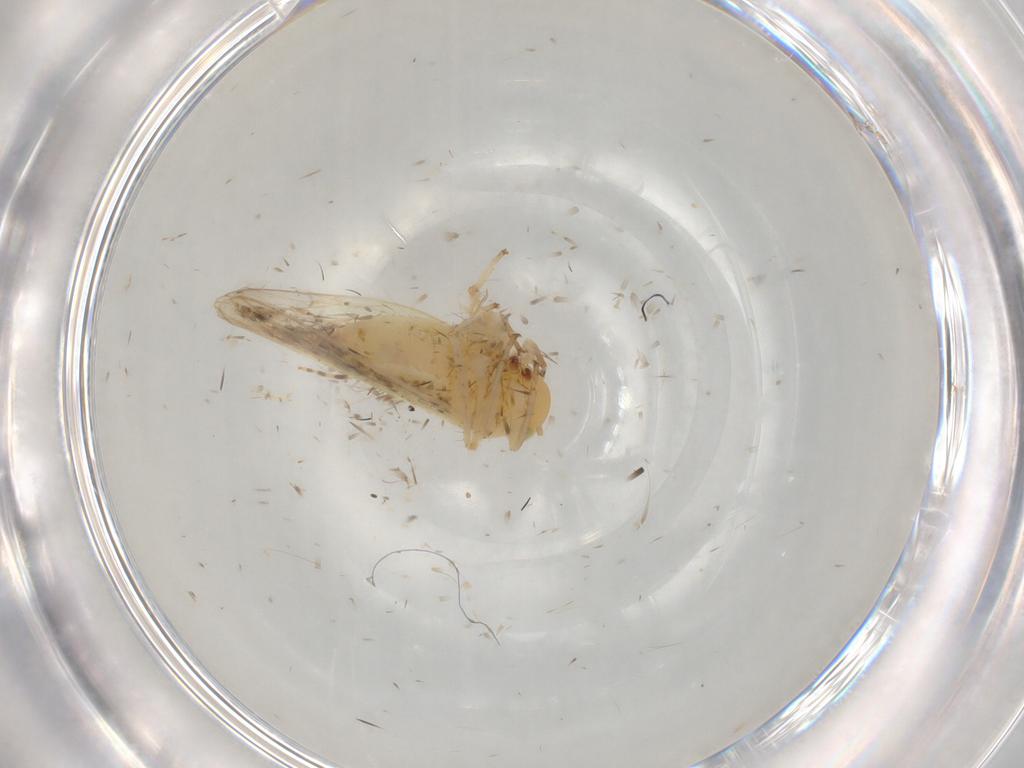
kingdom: Animalia
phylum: Arthropoda
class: Insecta
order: Hemiptera
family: Cicadellidae
